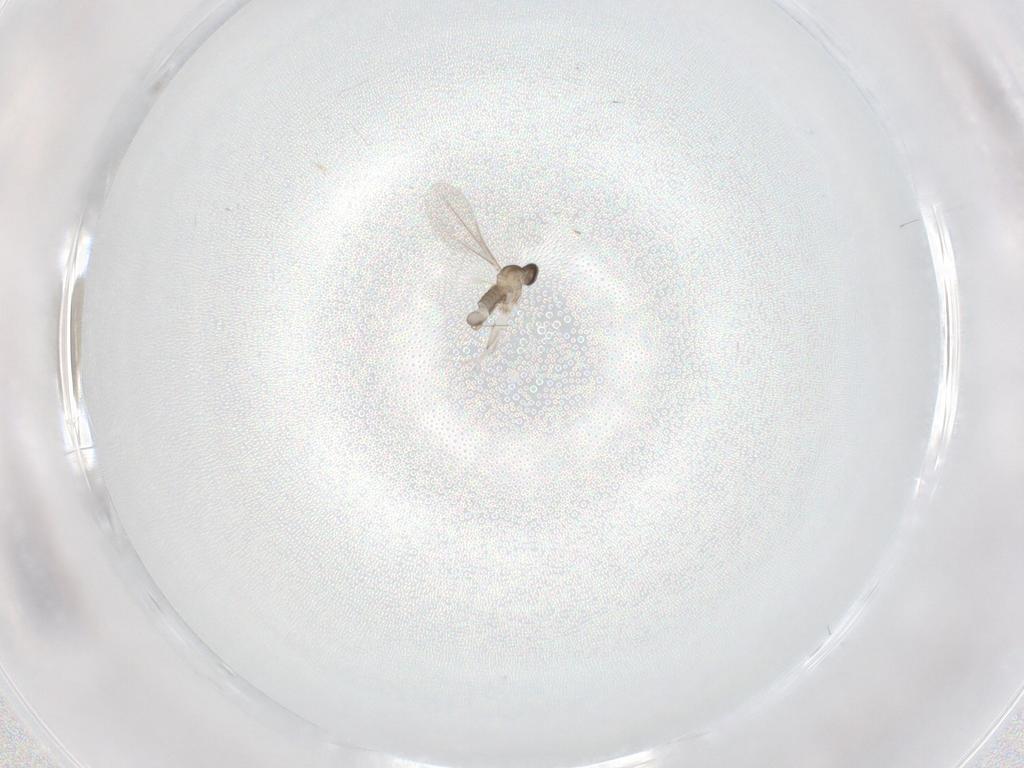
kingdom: Animalia
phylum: Arthropoda
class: Insecta
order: Diptera
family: Cecidomyiidae
